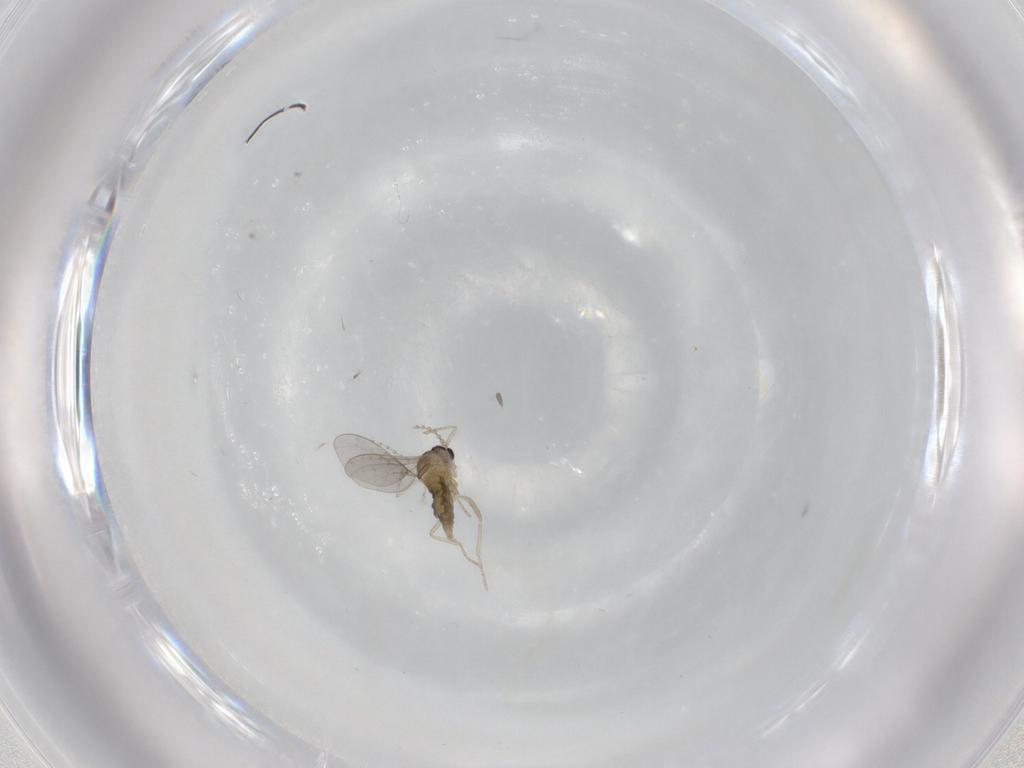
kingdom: Animalia
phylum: Arthropoda
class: Insecta
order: Diptera
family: Cecidomyiidae
